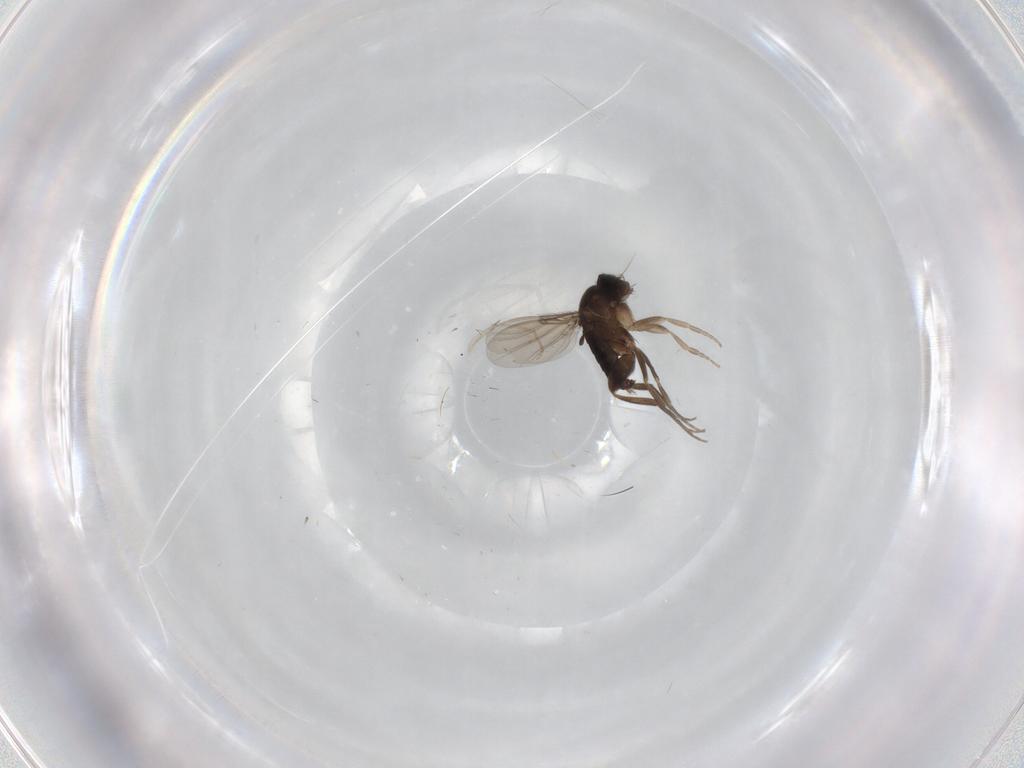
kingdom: Animalia
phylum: Arthropoda
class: Insecta
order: Diptera
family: Phoridae
